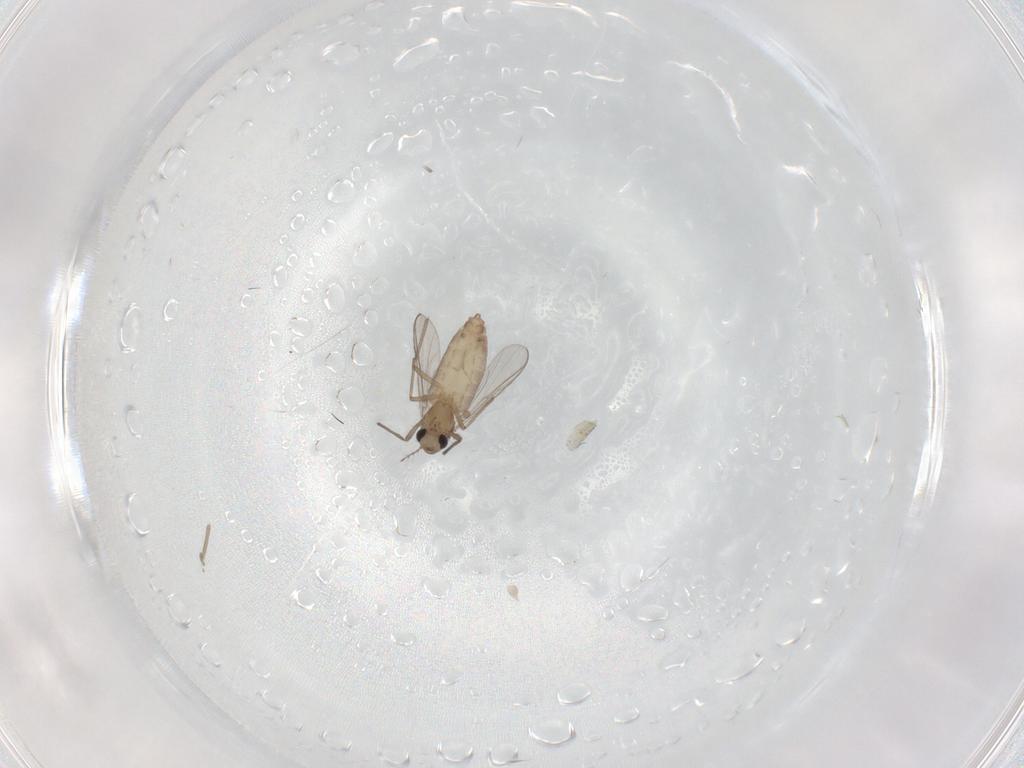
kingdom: Animalia
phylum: Arthropoda
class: Insecta
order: Diptera
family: Chironomidae
